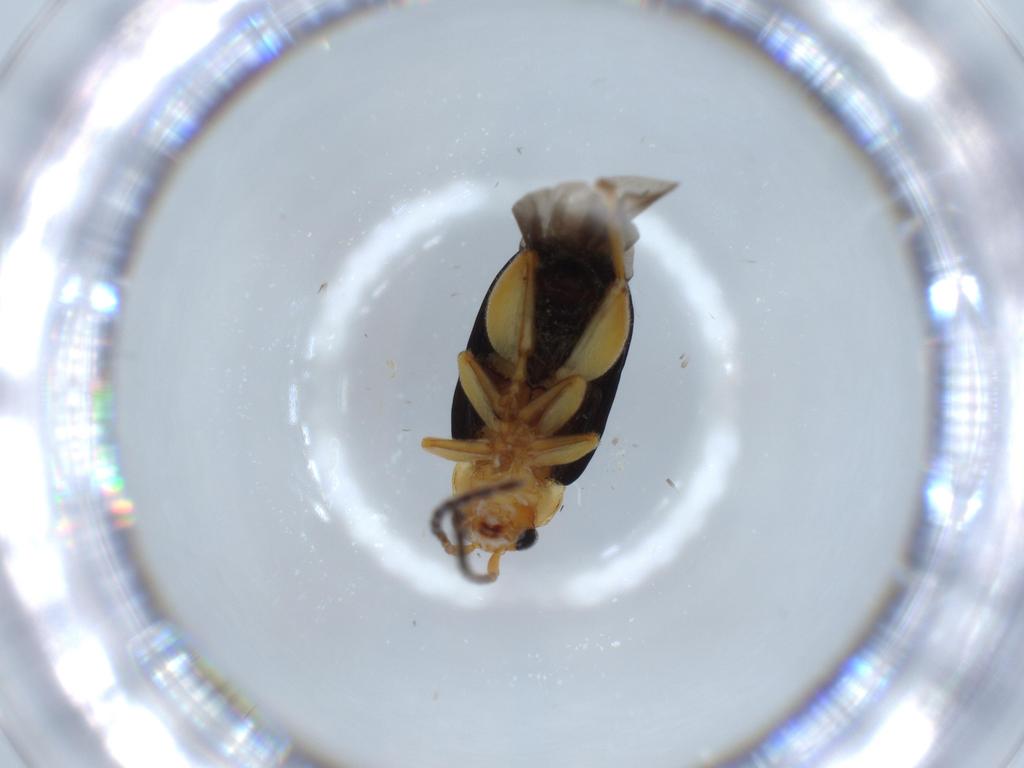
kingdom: Animalia
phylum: Arthropoda
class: Insecta
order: Coleoptera
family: Chrysomelidae
